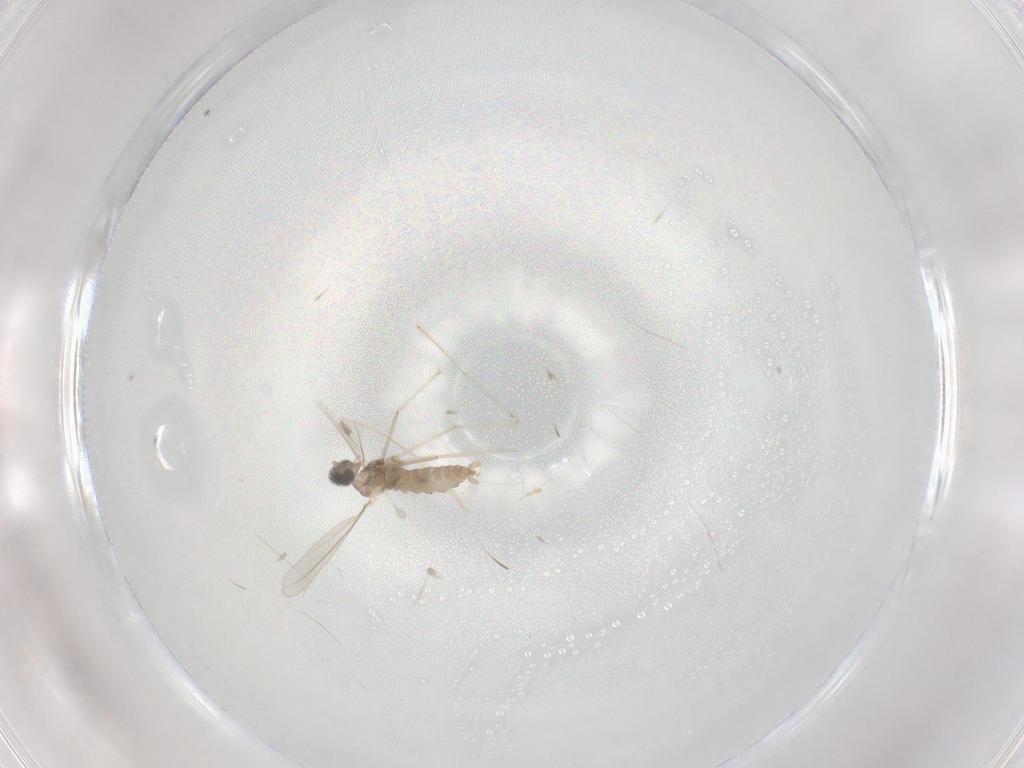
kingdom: Animalia
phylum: Arthropoda
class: Insecta
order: Diptera
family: Cecidomyiidae
